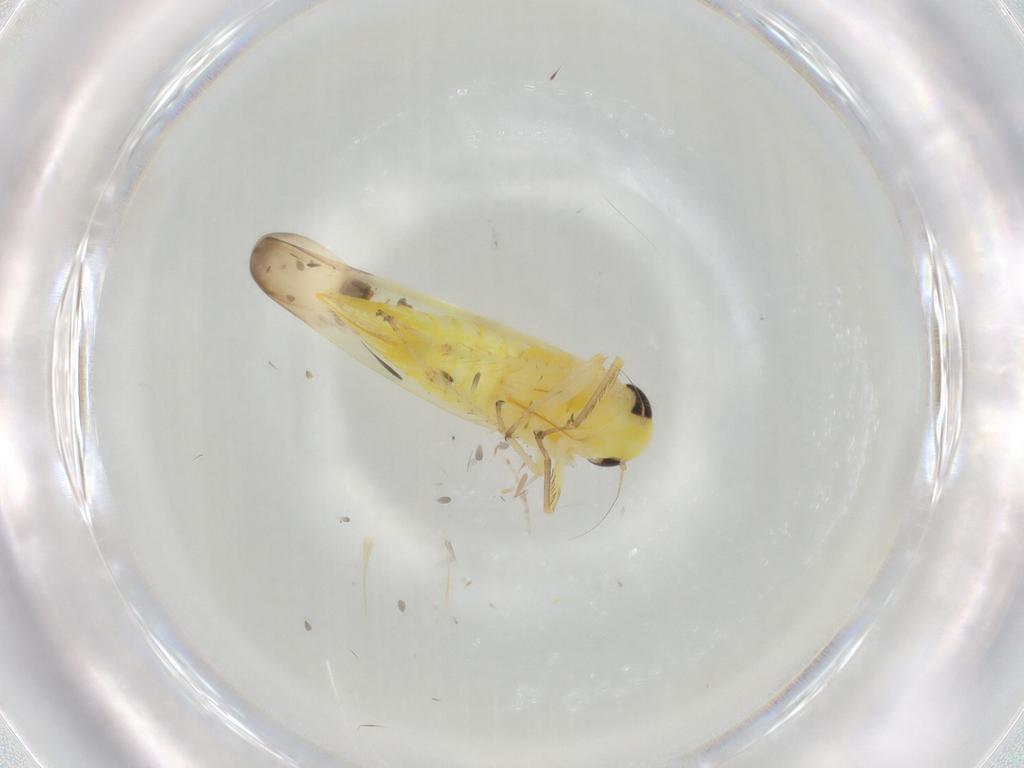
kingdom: Animalia
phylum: Arthropoda
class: Insecta
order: Hemiptera
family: Cicadellidae
